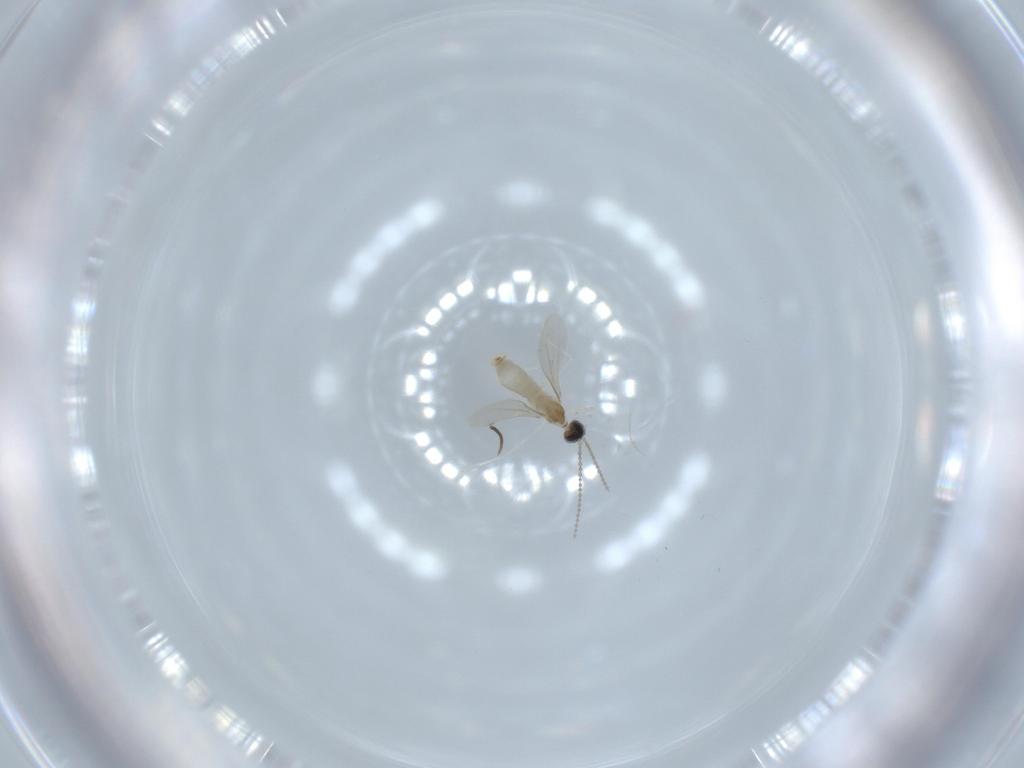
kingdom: Animalia
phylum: Arthropoda
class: Insecta
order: Diptera
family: Cecidomyiidae
